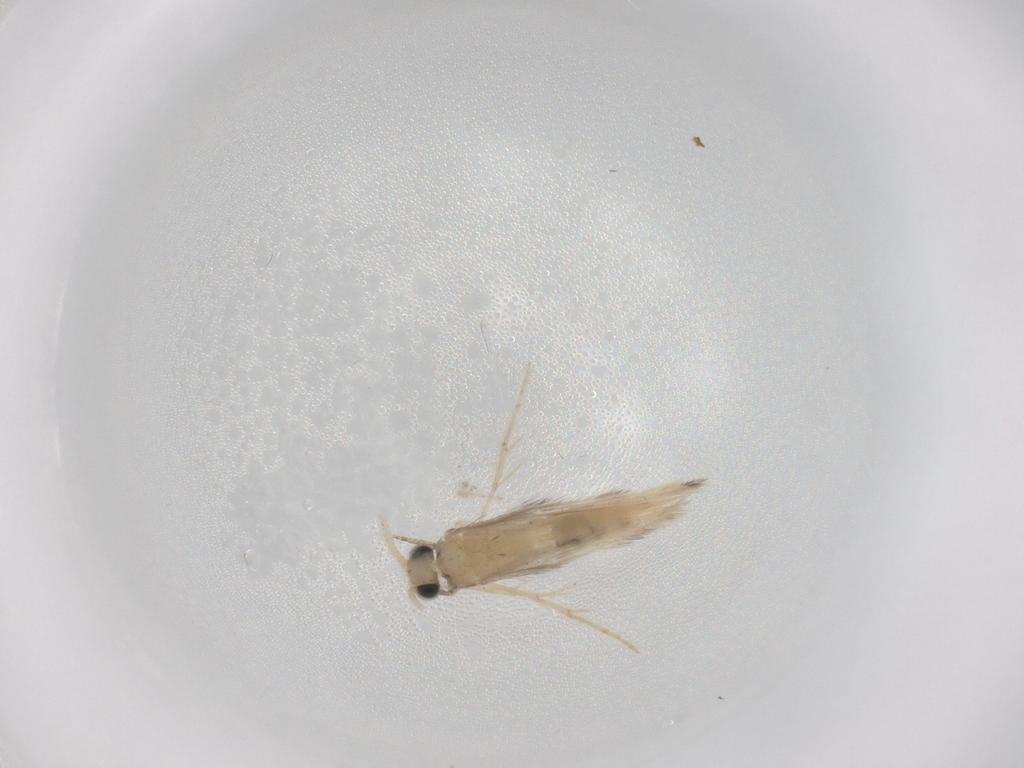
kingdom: Animalia
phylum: Arthropoda
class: Insecta
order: Trichoptera
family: Hydroptilidae
